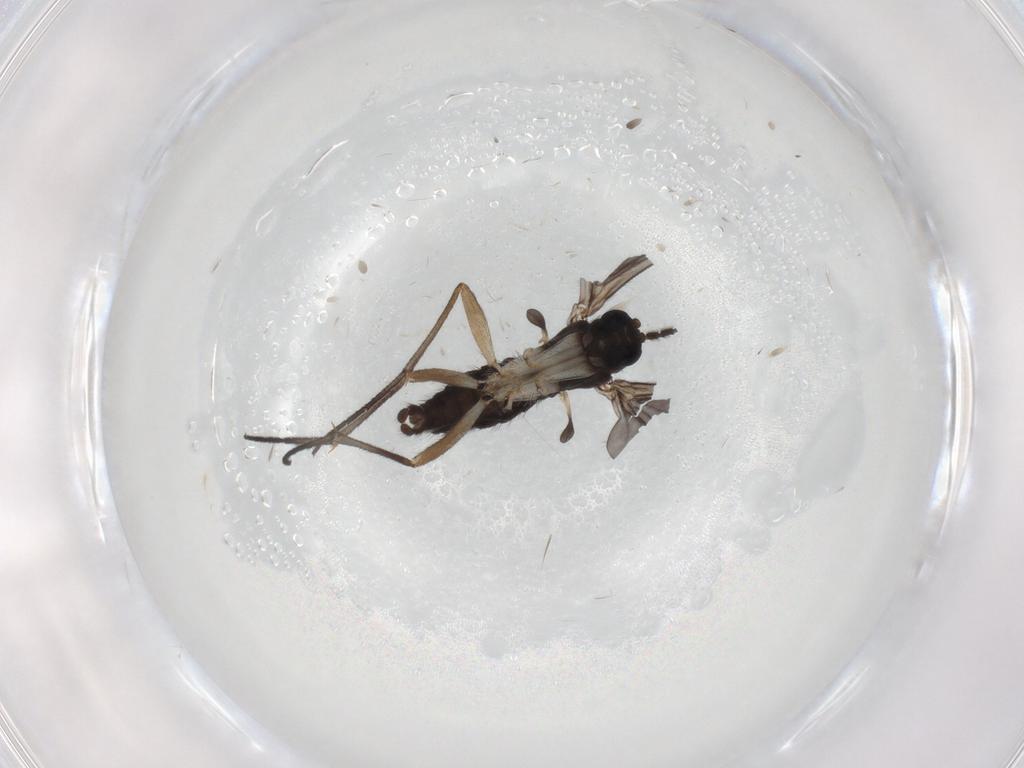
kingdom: Animalia
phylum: Arthropoda
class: Insecta
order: Diptera
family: Sciaridae
